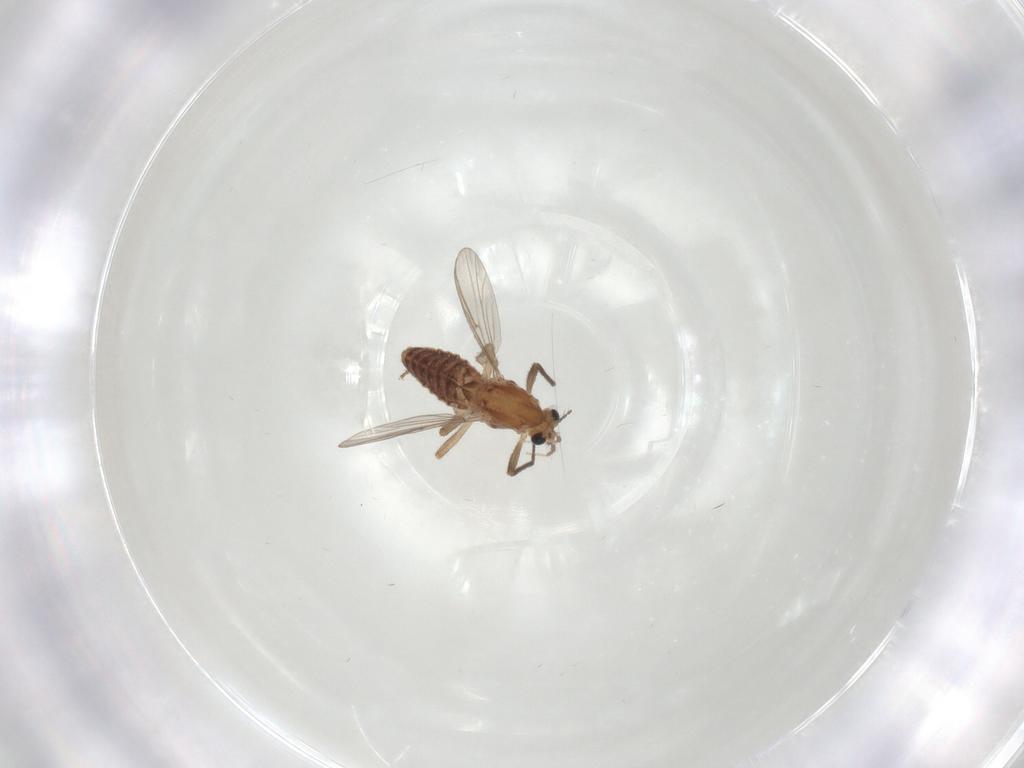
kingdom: Animalia
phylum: Arthropoda
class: Insecta
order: Diptera
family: Chironomidae
